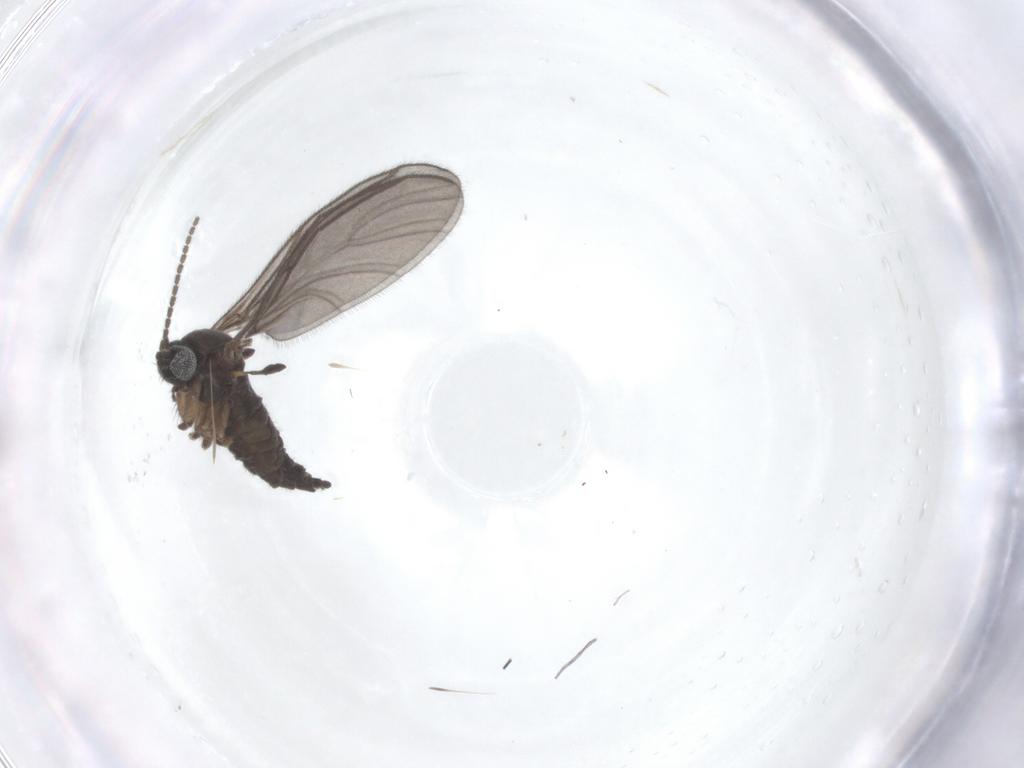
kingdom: Animalia
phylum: Arthropoda
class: Insecta
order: Diptera
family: Sciaridae
